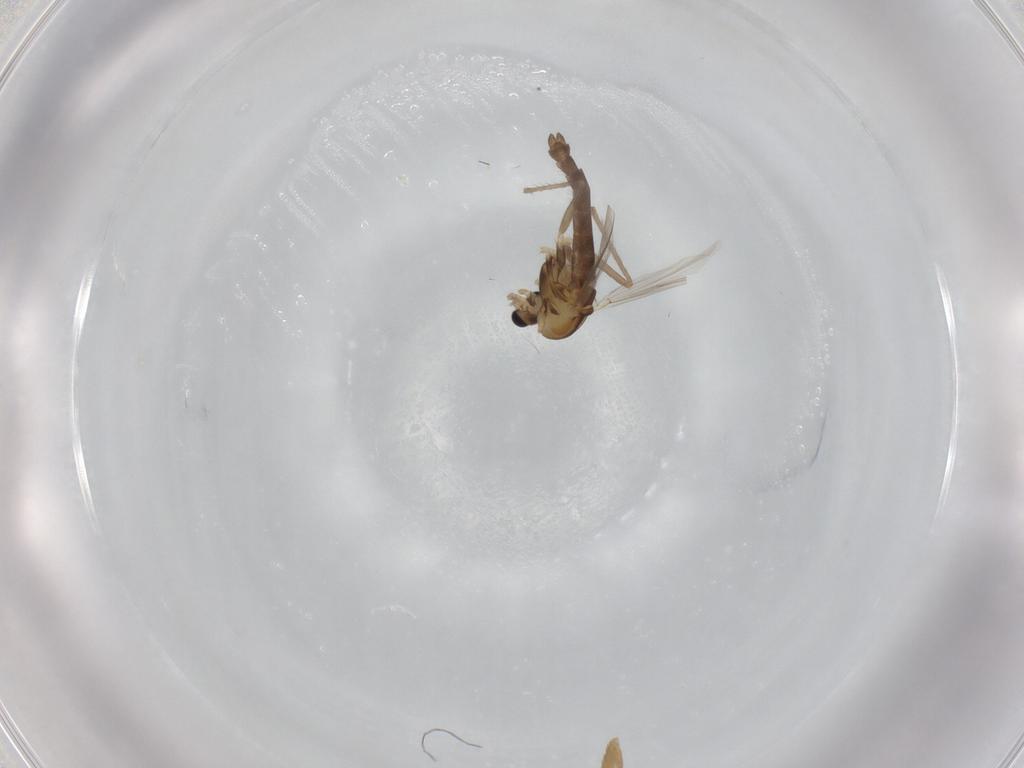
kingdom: Animalia
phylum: Arthropoda
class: Insecta
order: Diptera
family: Chironomidae
